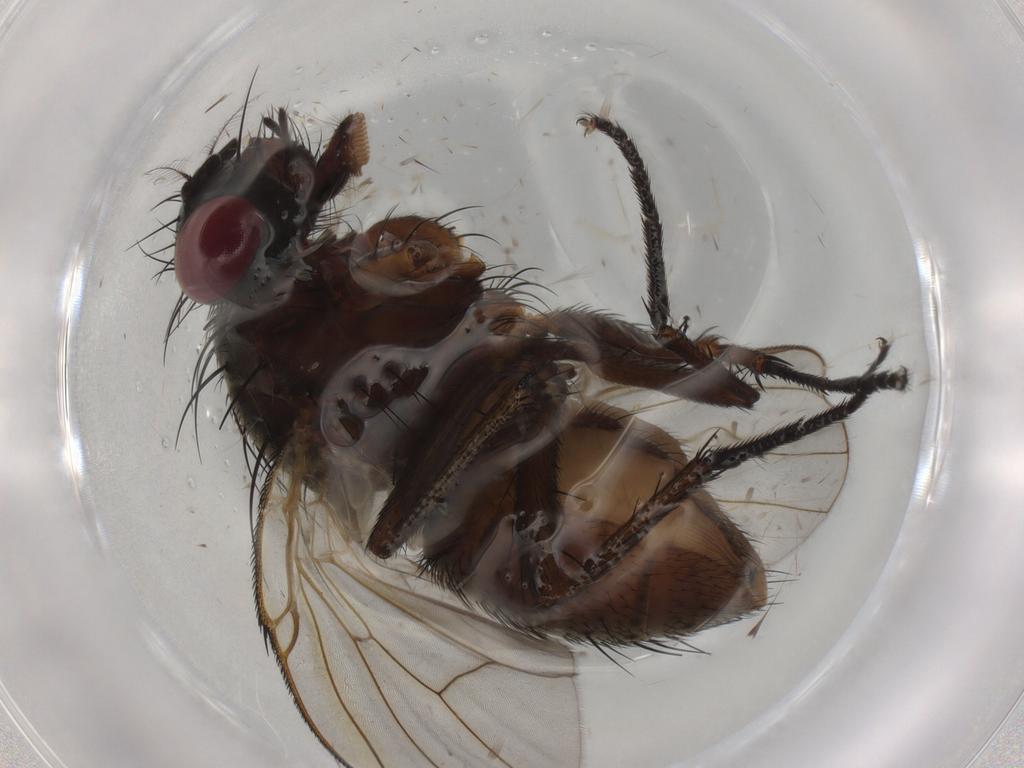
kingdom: Animalia
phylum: Arthropoda
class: Insecta
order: Diptera
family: Muscidae
